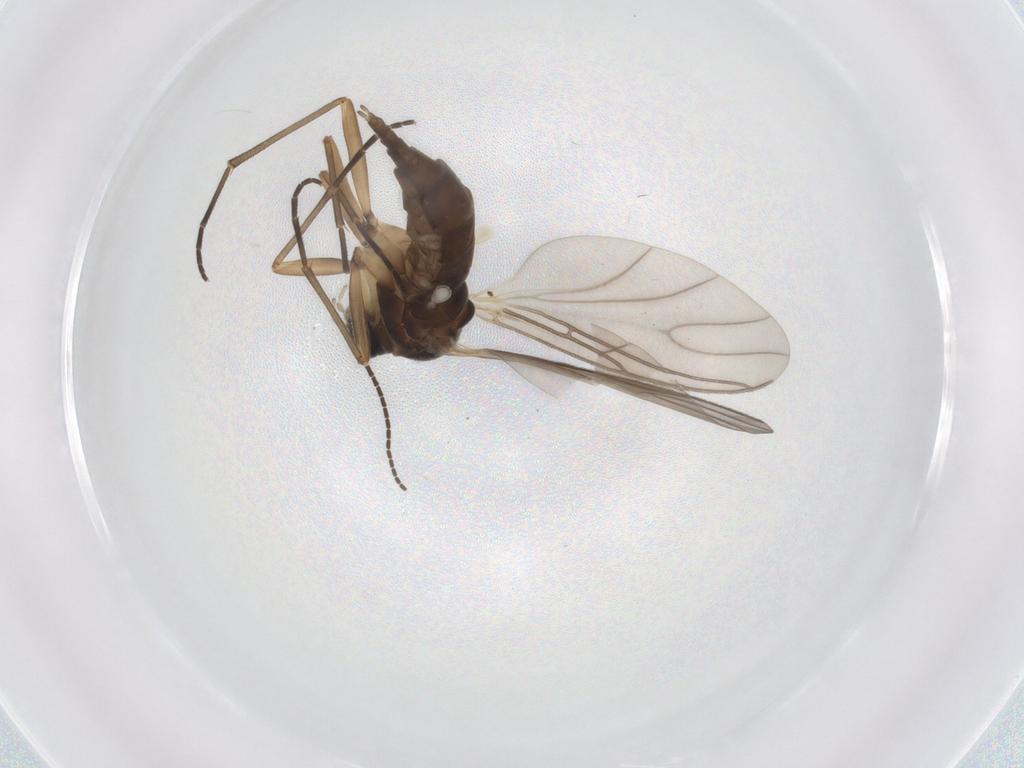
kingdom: Animalia
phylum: Arthropoda
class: Insecta
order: Diptera
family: Sciaridae
